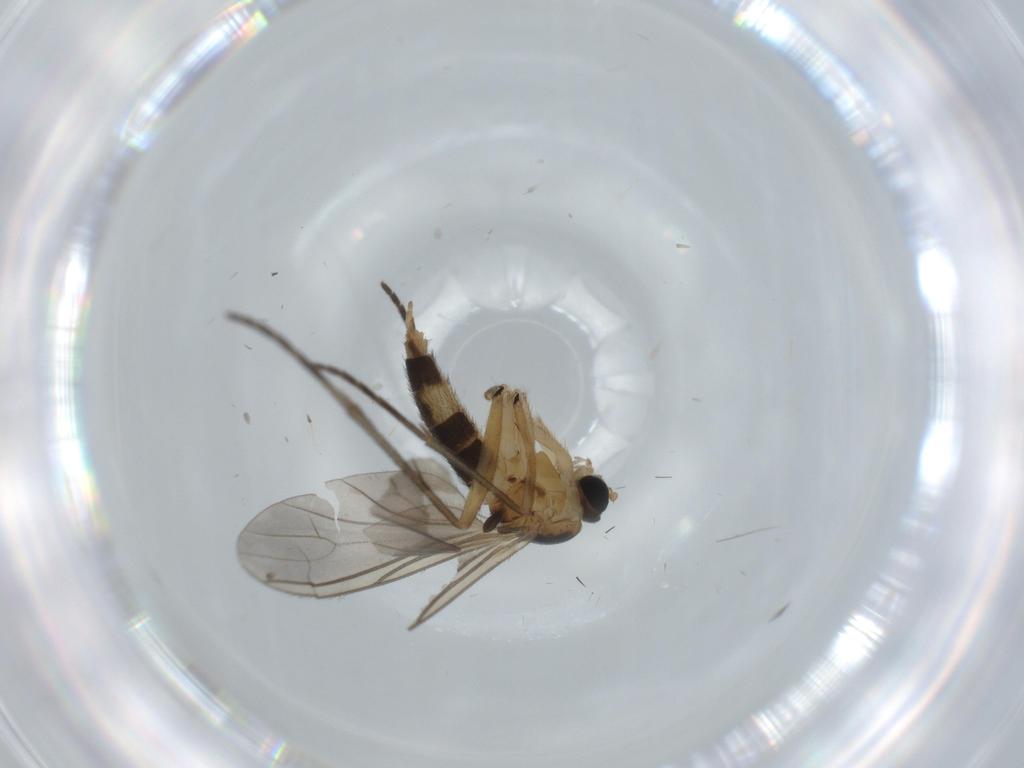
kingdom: Animalia
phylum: Arthropoda
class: Insecta
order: Diptera
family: Sciaridae
